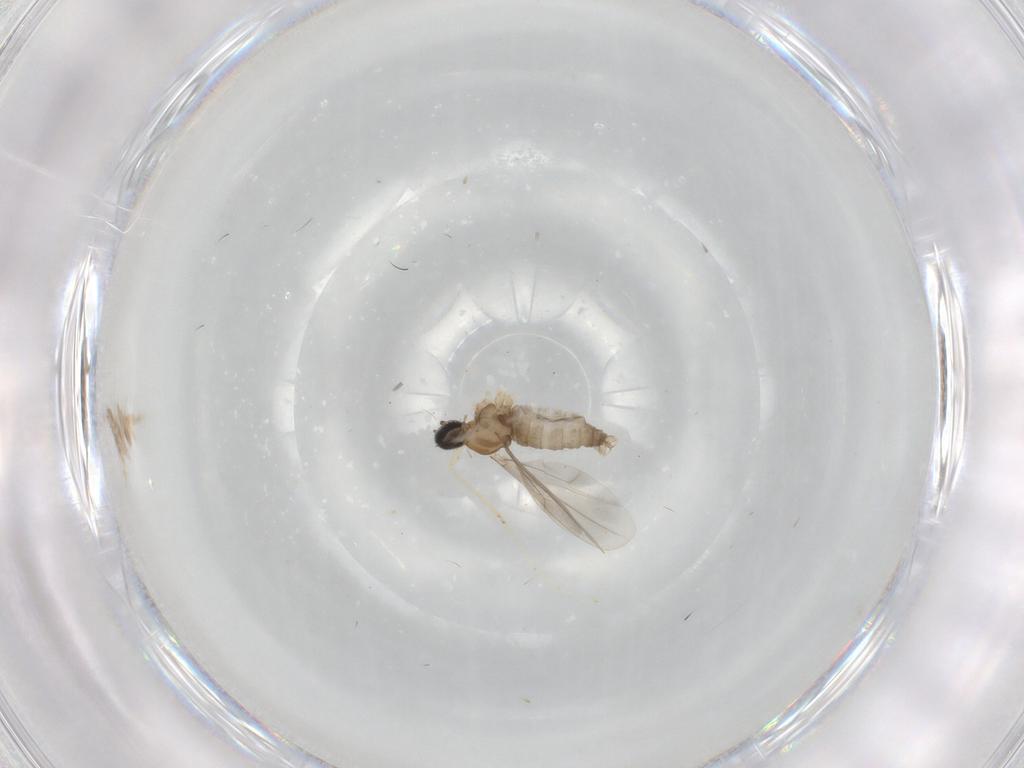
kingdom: Animalia
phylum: Arthropoda
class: Insecta
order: Diptera
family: Cecidomyiidae
